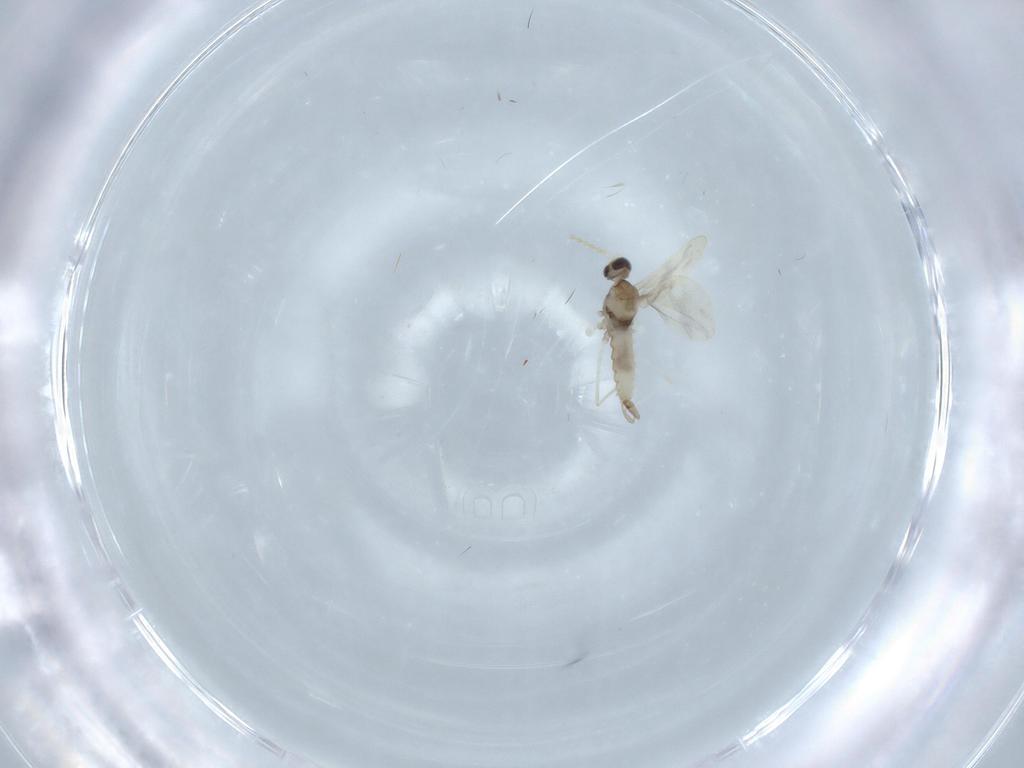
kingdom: Animalia
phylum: Arthropoda
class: Insecta
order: Diptera
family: Cecidomyiidae
